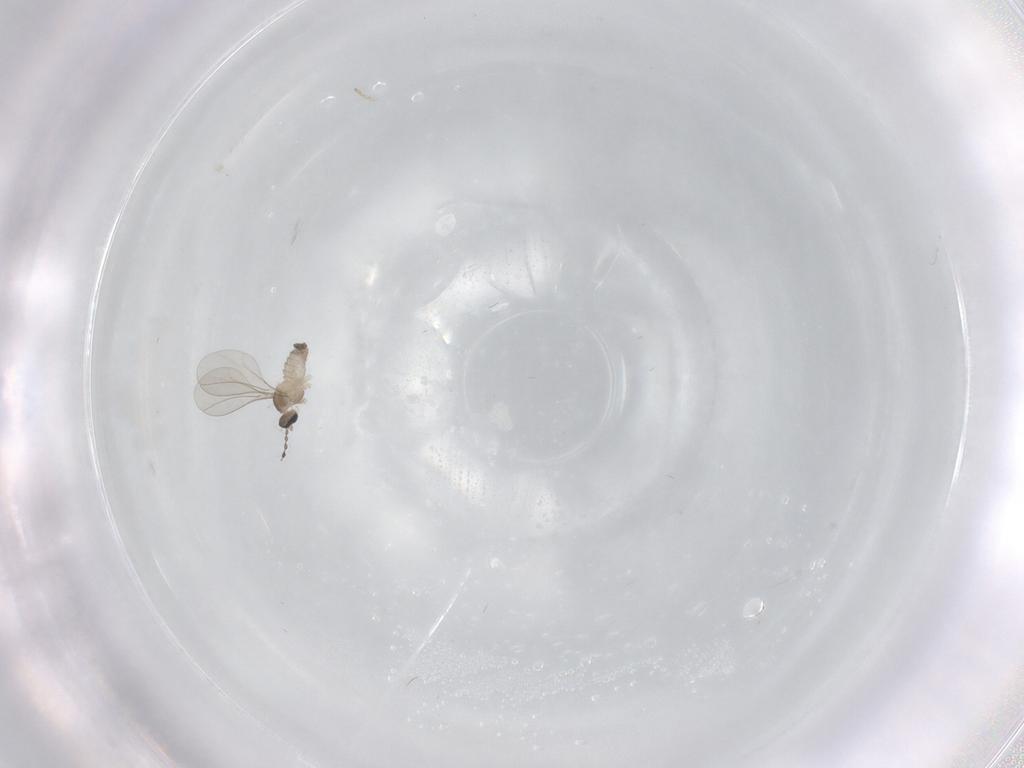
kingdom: Animalia
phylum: Arthropoda
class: Insecta
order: Diptera
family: Cecidomyiidae
